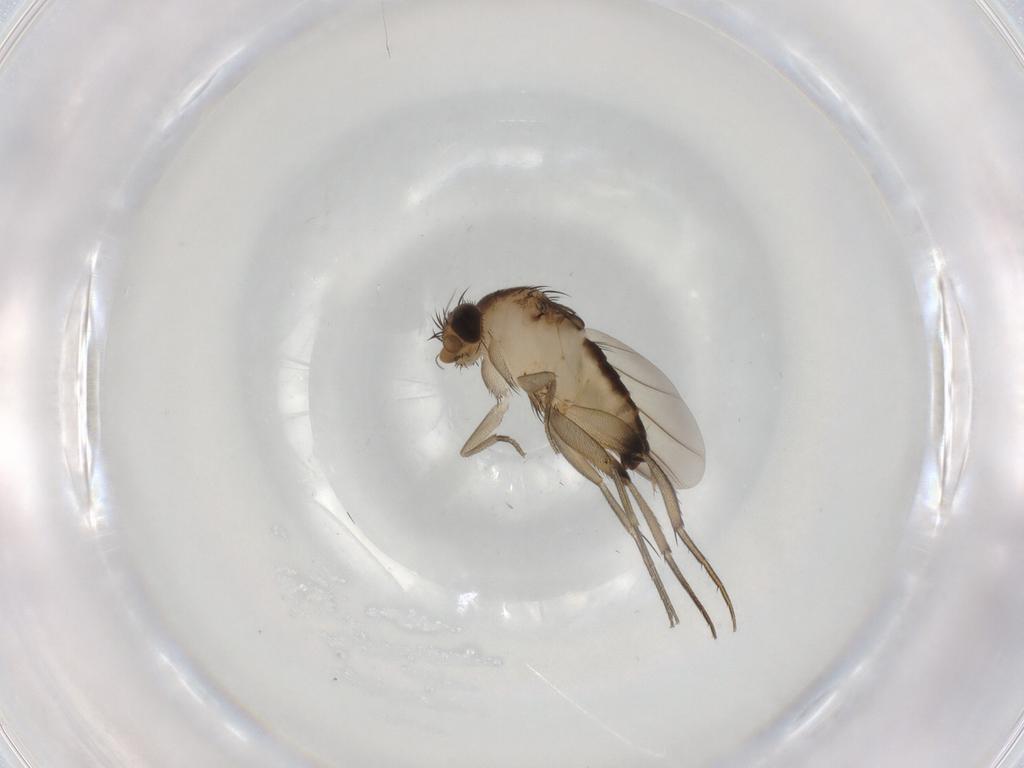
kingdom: Animalia
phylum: Arthropoda
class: Insecta
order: Diptera
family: Phoridae
